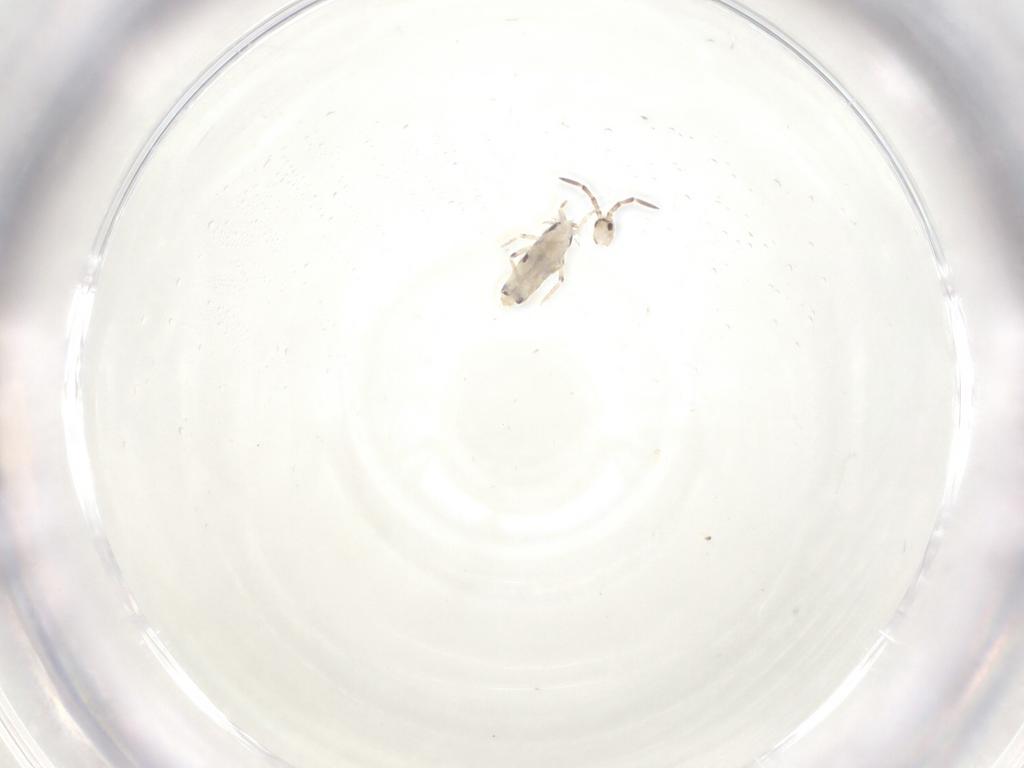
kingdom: Animalia
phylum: Arthropoda
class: Collembola
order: Entomobryomorpha
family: Entomobryidae
